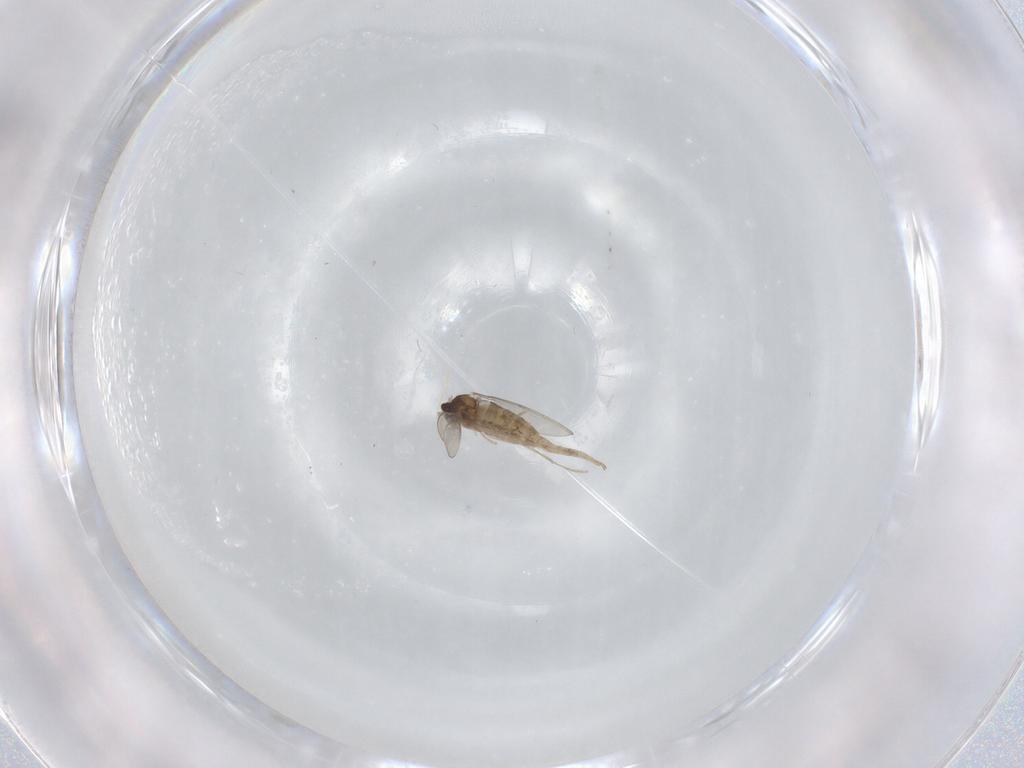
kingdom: Animalia
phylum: Arthropoda
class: Insecta
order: Diptera
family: Cecidomyiidae
